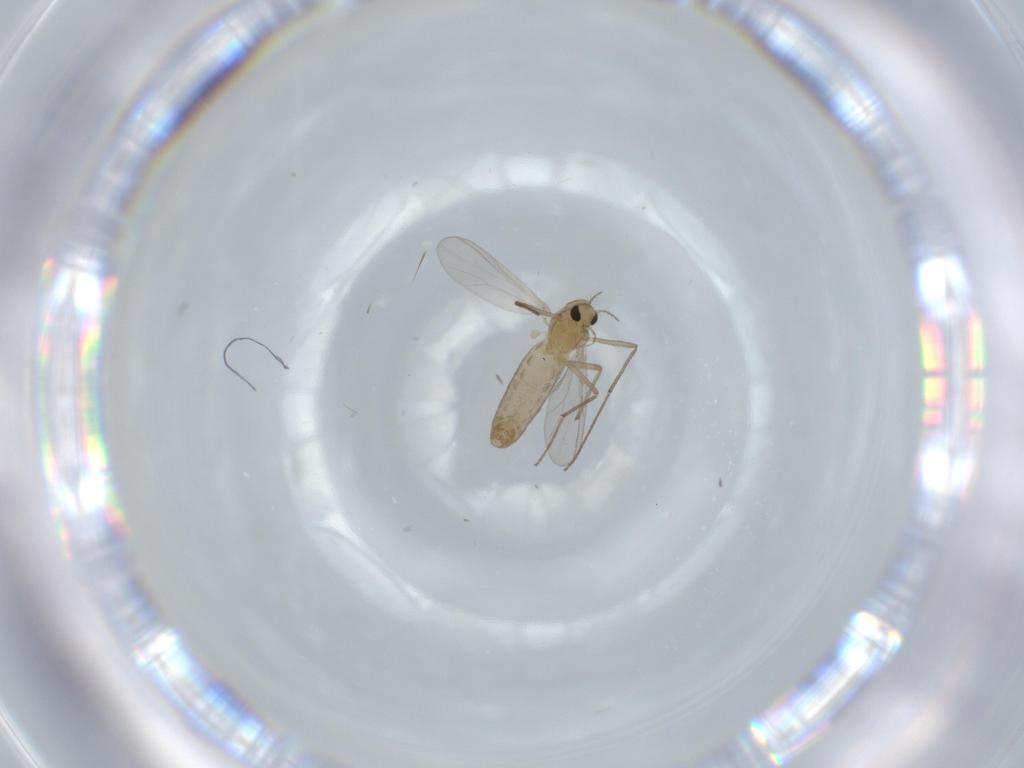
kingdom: Animalia
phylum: Arthropoda
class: Insecta
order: Diptera
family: Chironomidae
